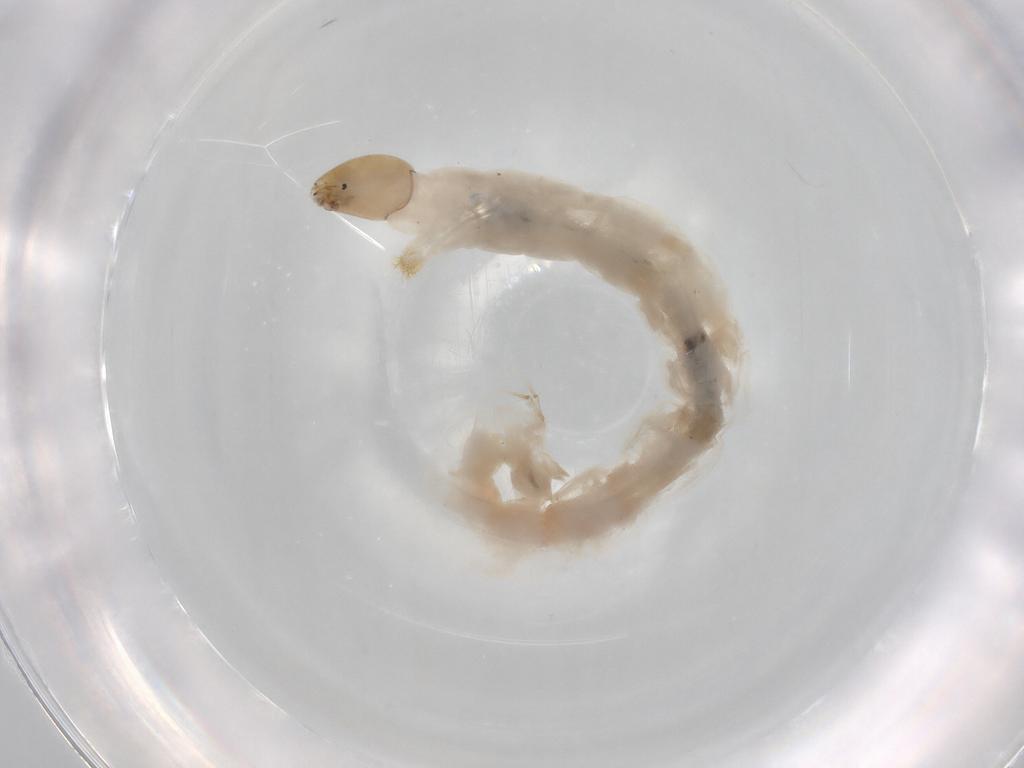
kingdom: Animalia
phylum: Arthropoda
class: Insecta
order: Diptera
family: Chironomidae
